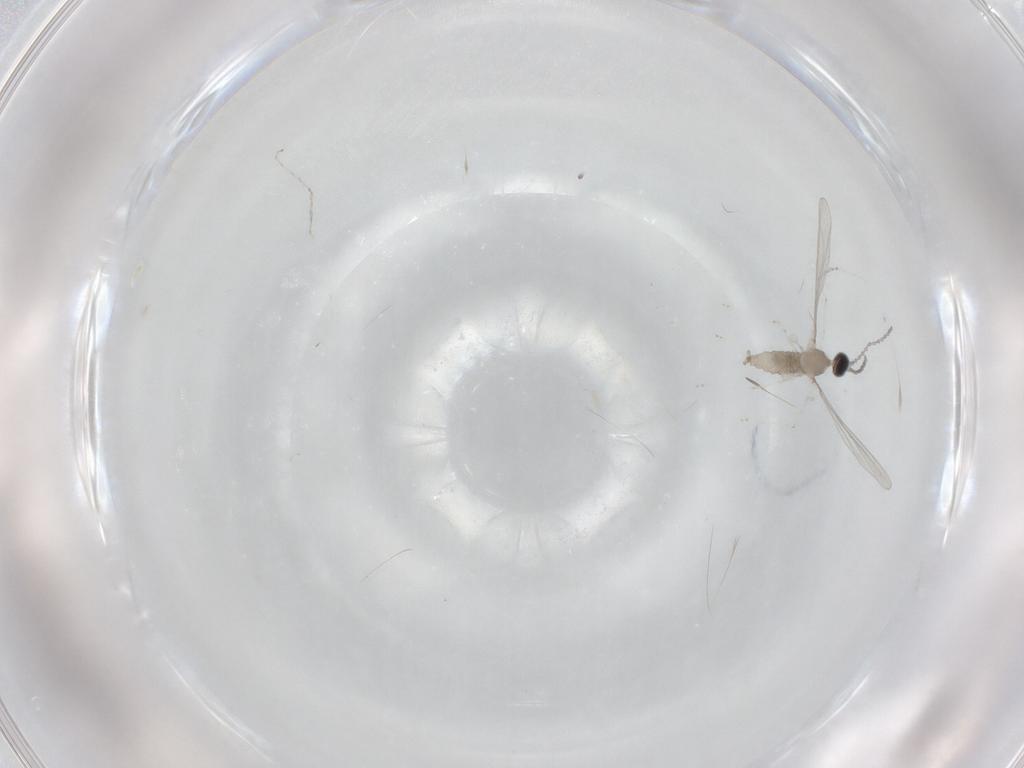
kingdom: Animalia
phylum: Arthropoda
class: Insecta
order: Diptera
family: Cecidomyiidae
